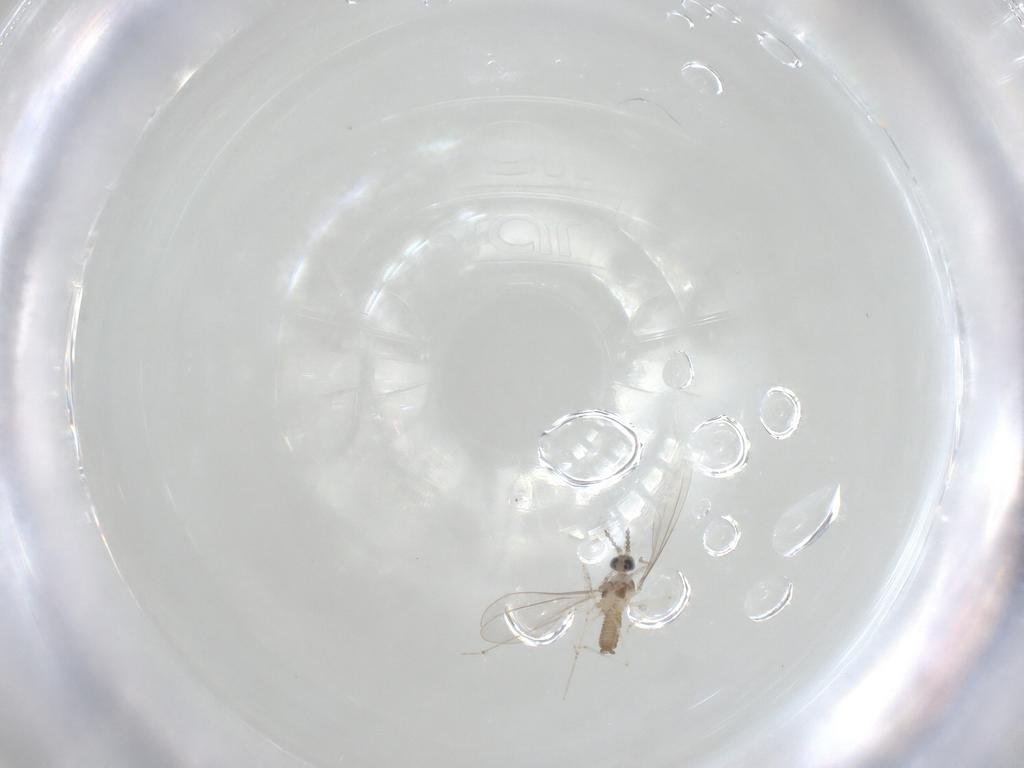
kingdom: Animalia
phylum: Arthropoda
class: Insecta
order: Diptera
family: Cecidomyiidae
